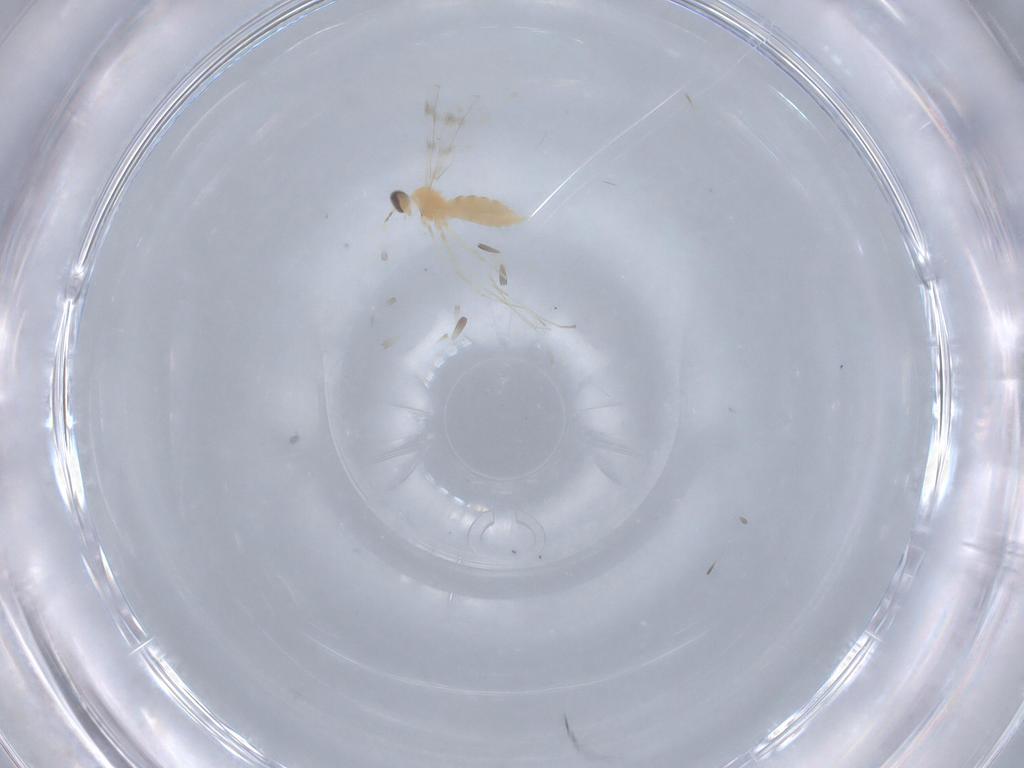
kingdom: Animalia
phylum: Arthropoda
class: Insecta
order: Diptera
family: Cecidomyiidae
